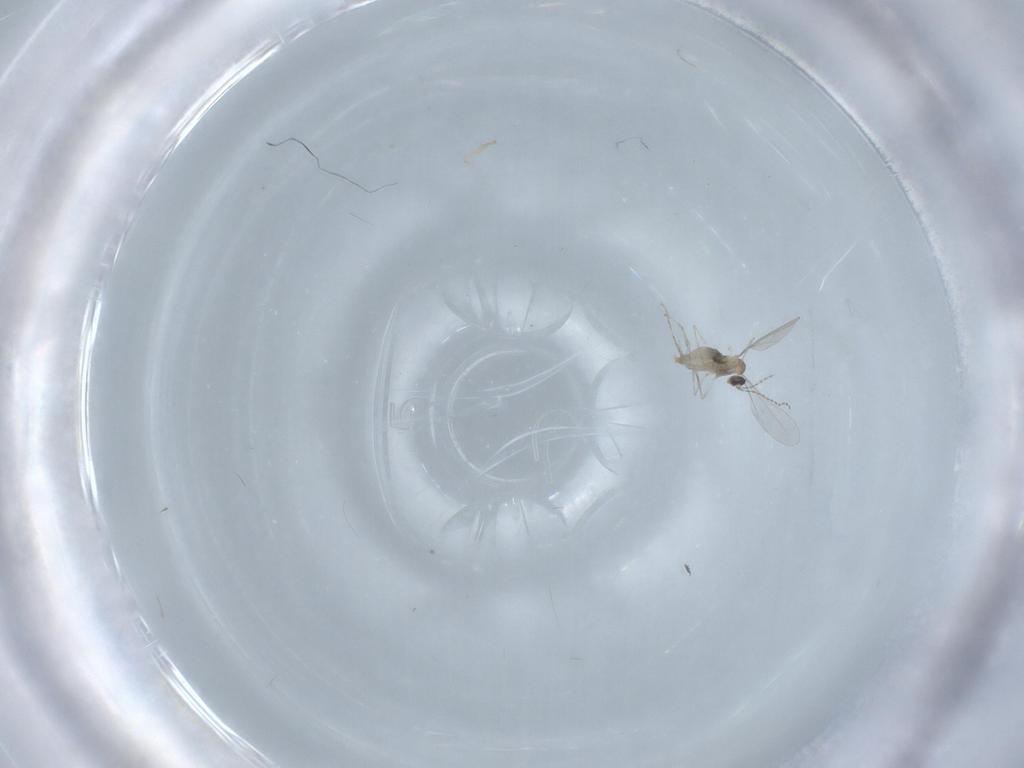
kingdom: Animalia
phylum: Arthropoda
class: Insecta
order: Diptera
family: Cecidomyiidae
